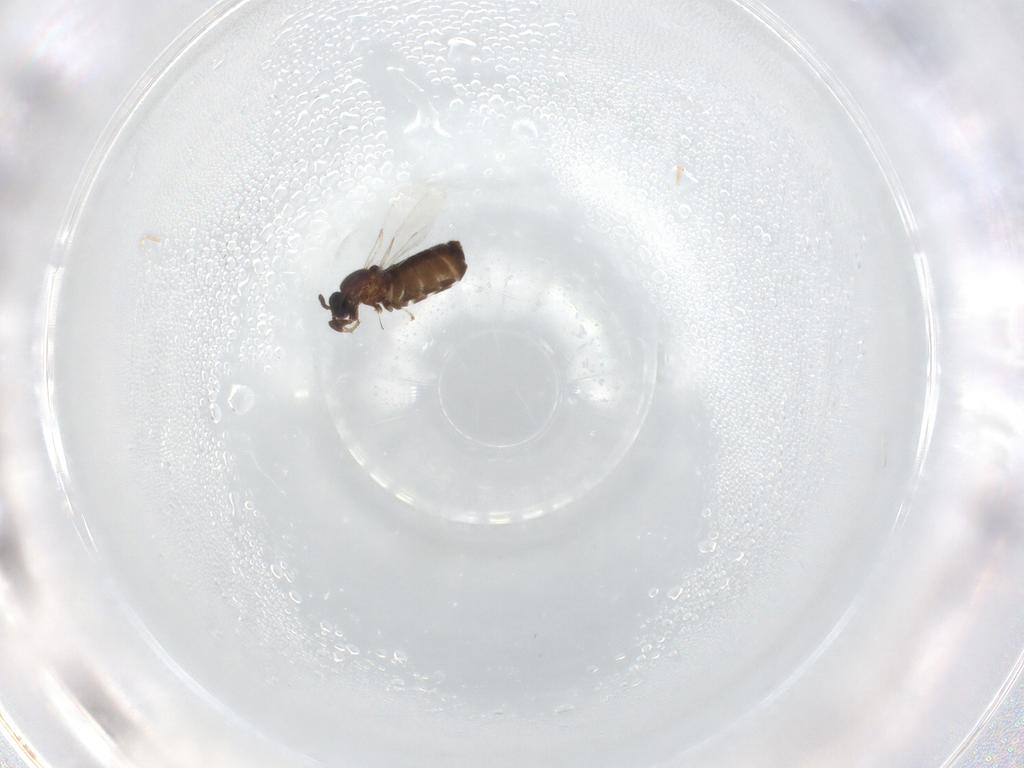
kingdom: Animalia
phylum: Arthropoda
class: Insecta
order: Diptera
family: Scatopsidae
